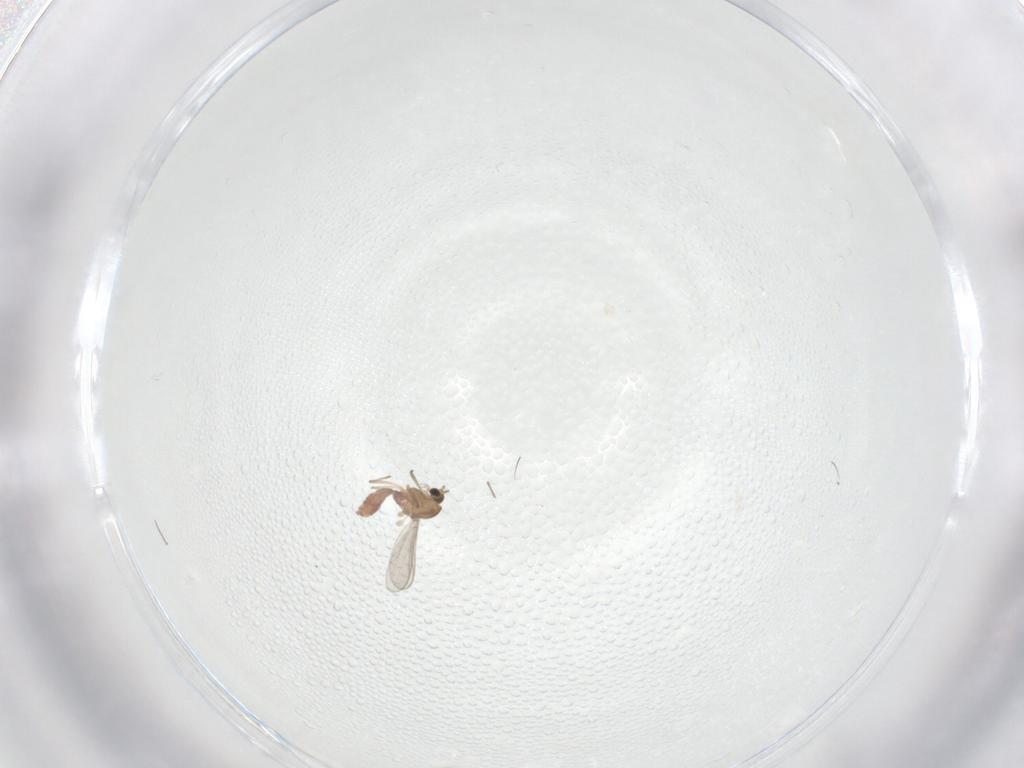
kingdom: Animalia
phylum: Arthropoda
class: Insecta
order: Diptera
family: Chironomidae
